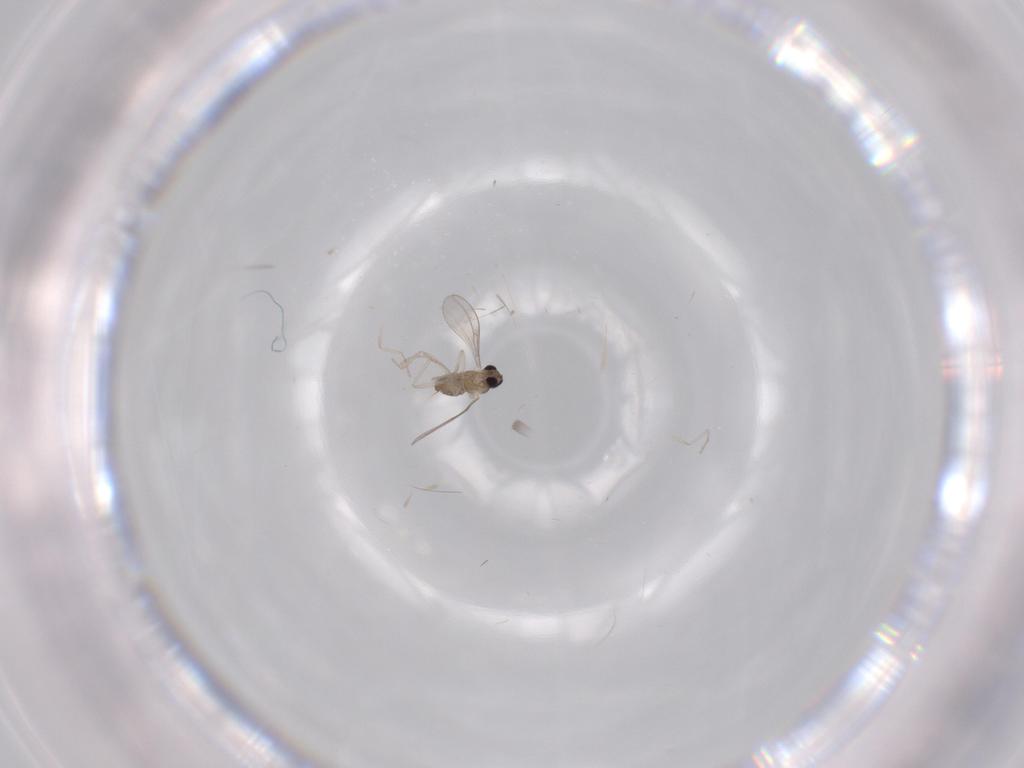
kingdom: Animalia
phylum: Arthropoda
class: Insecta
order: Diptera
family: Cecidomyiidae
